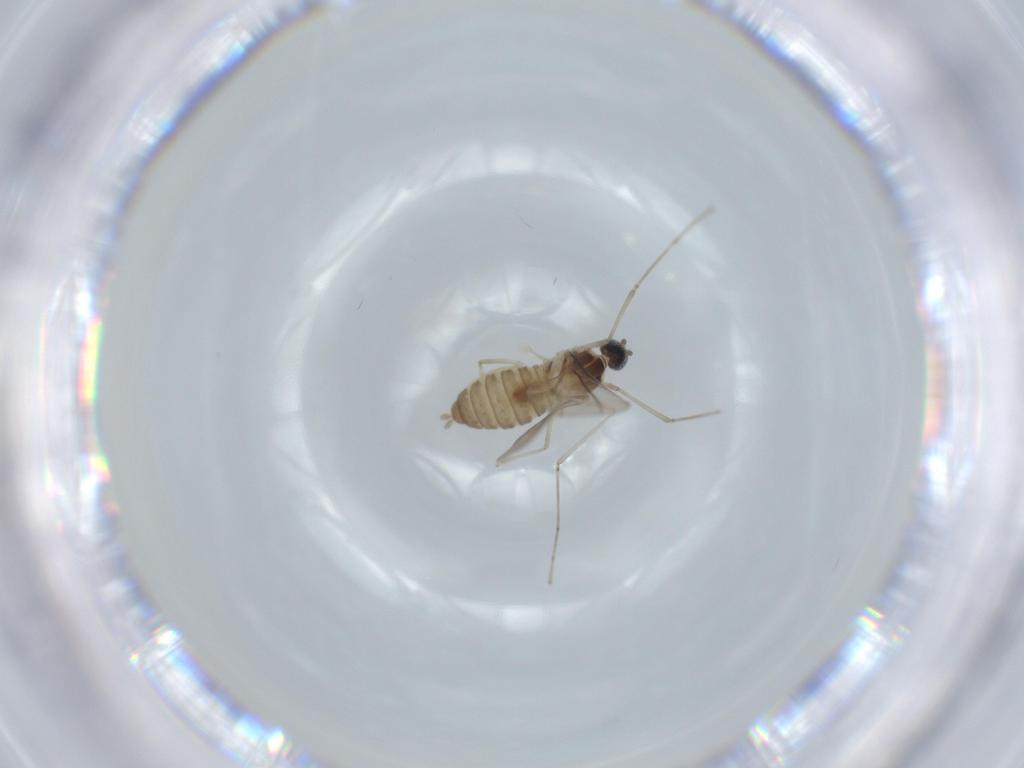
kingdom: Animalia
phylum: Arthropoda
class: Insecta
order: Diptera
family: Cecidomyiidae
